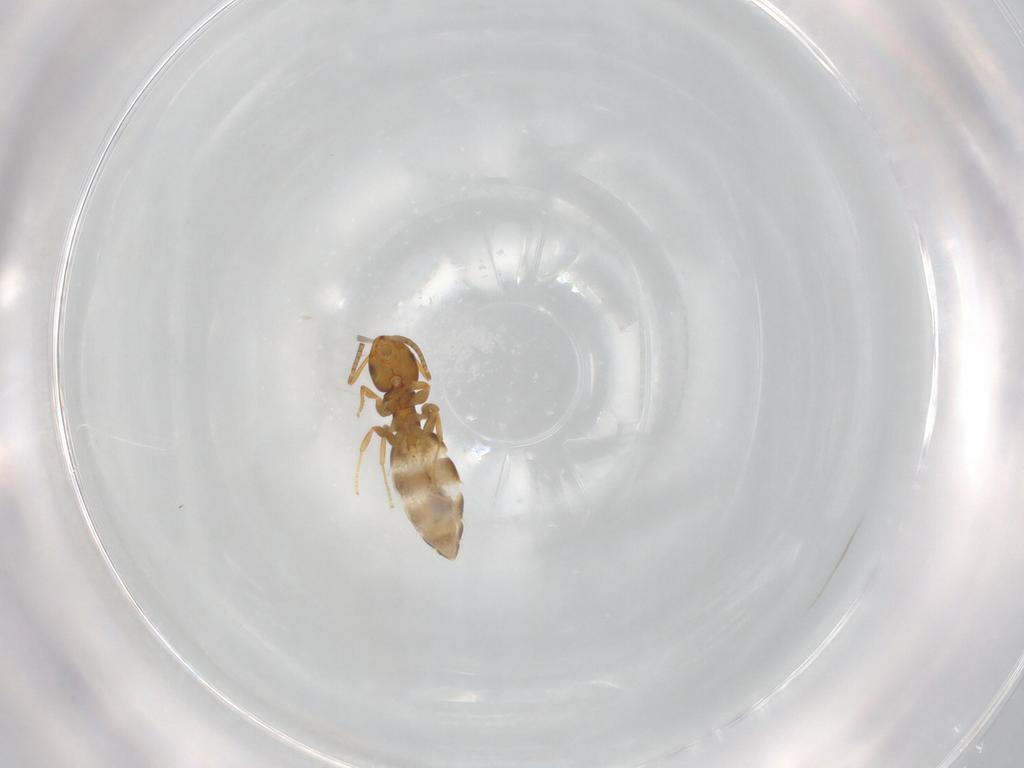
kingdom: Animalia
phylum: Arthropoda
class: Insecta
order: Hymenoptera
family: Formicidae
